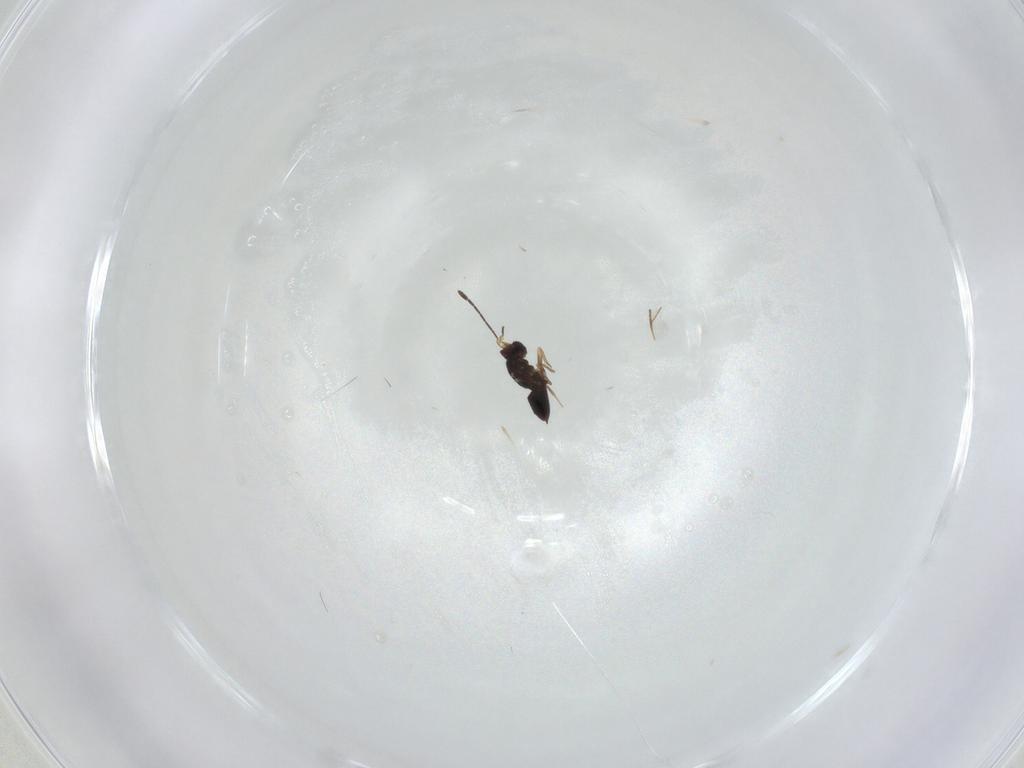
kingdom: Animalia
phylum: Arthropoda
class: Insecta
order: Hymenoptera
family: Mymaridae
